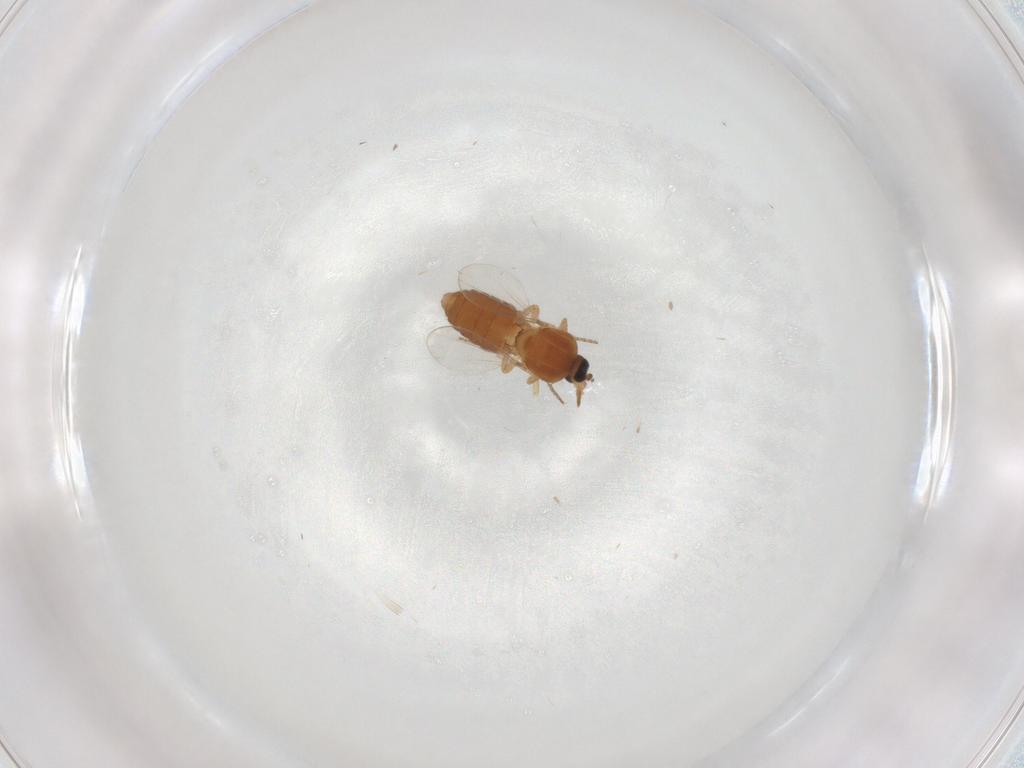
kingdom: Animalia
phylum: Arthropoda
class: Insecta
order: Diptera
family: Ceratopogonidae
